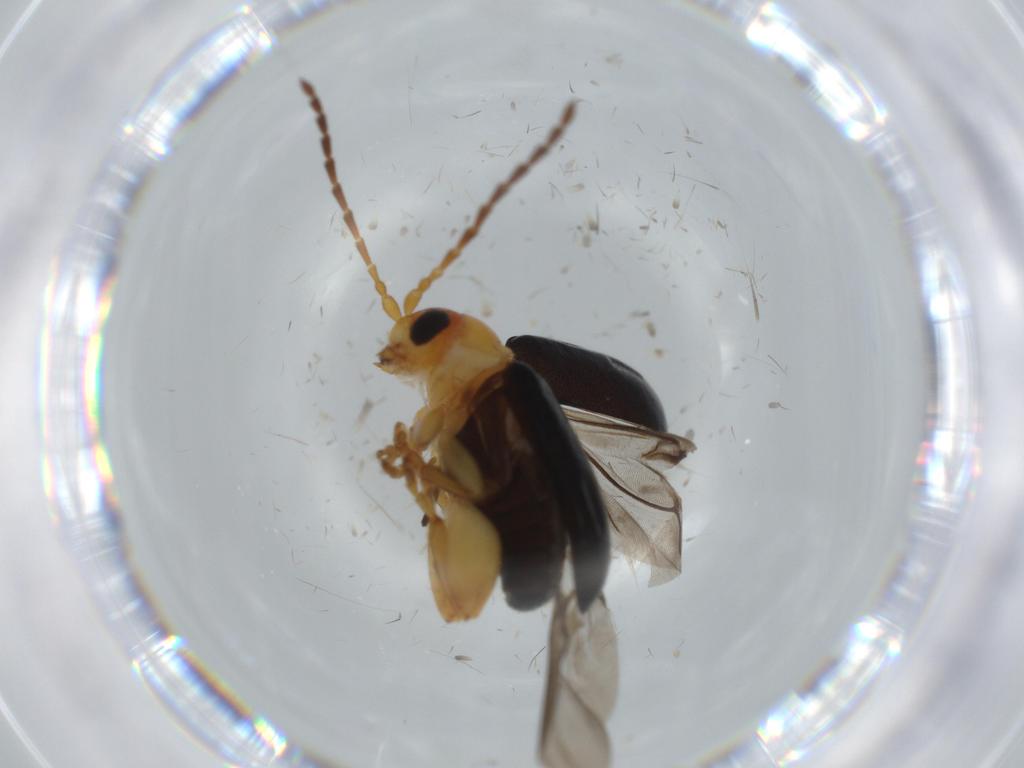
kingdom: Animalia
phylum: Arthropoda
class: Insecta
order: Coleoptera
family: Chrysomelidae
